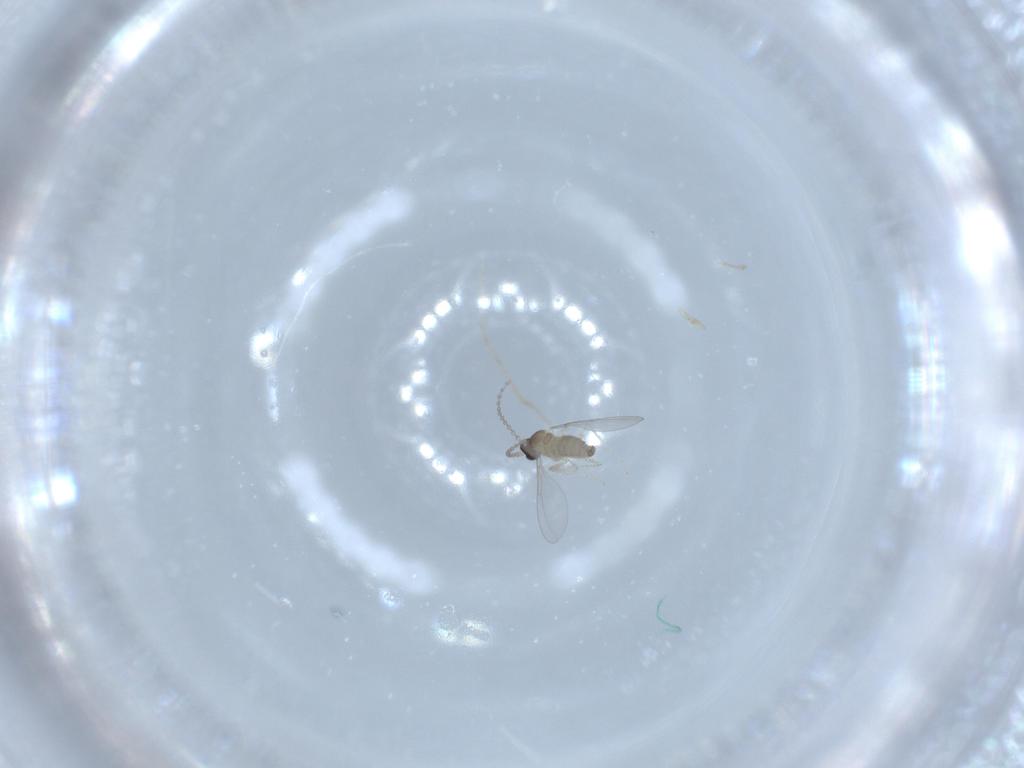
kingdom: Animalia
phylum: Arthropoda
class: Insecta
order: Diptera
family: Cecidomyiidae
